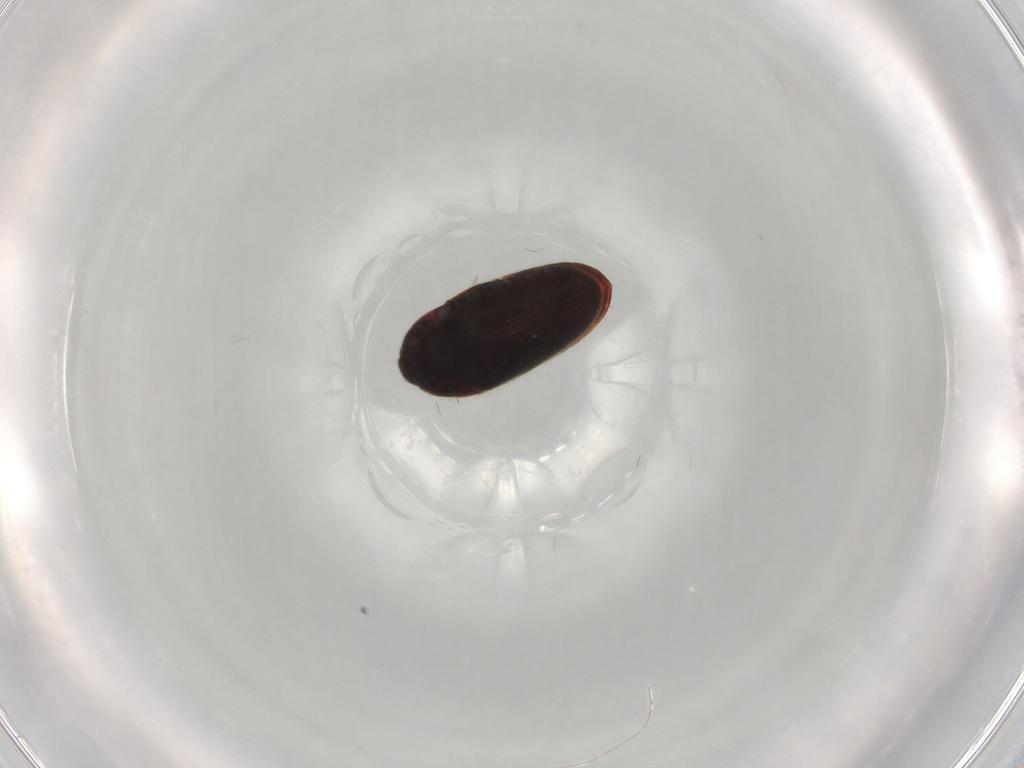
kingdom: Animalia
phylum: Arthropoda
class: Insecta
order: Coleoptera
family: Throscidae
